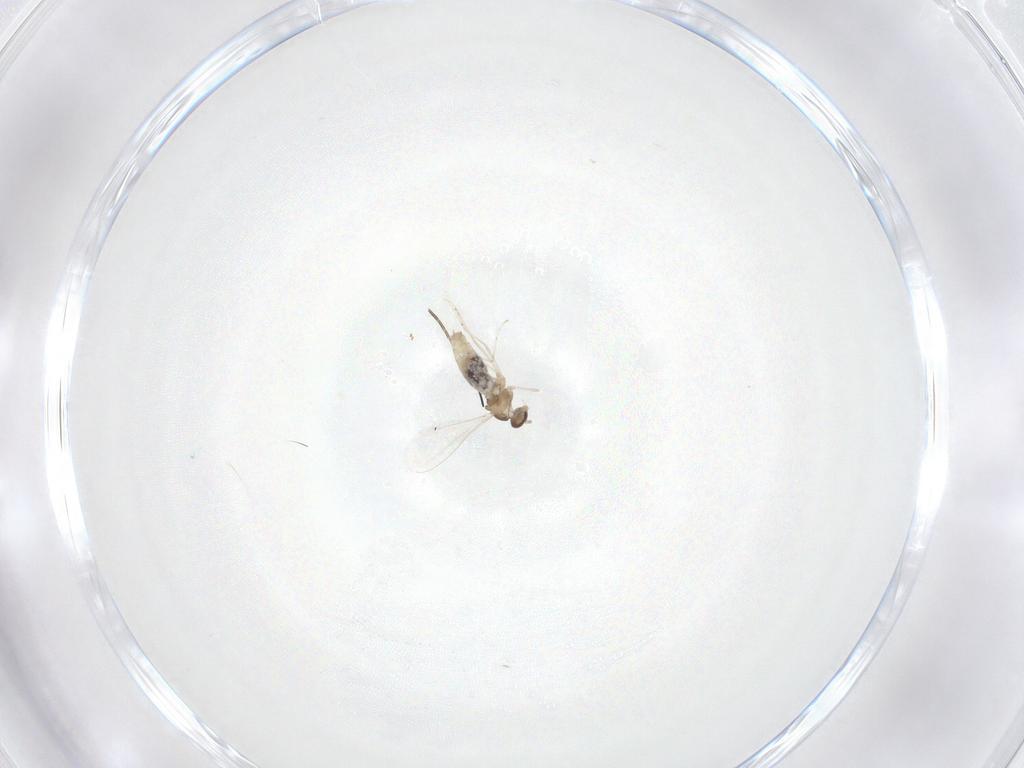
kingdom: Animalia
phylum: Arthropoda
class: Insecta
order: Diptera
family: Cecidomyiidae
